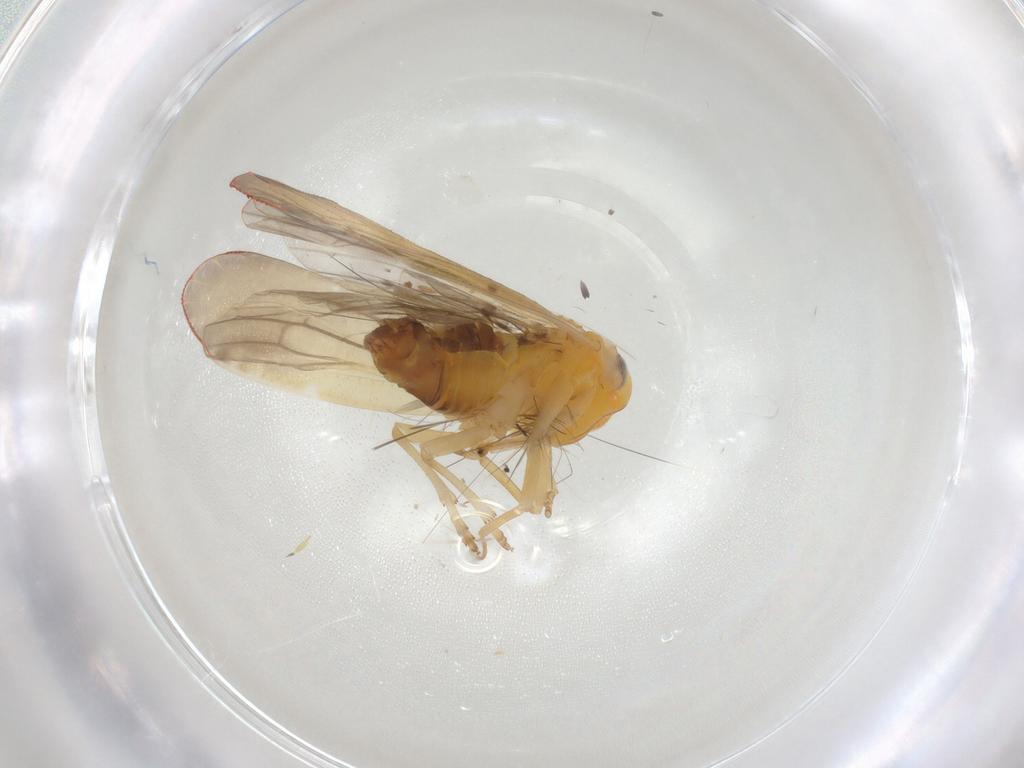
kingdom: Animalia
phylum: Arthropoda
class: Insecta
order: Hemiptera
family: Derbidae
